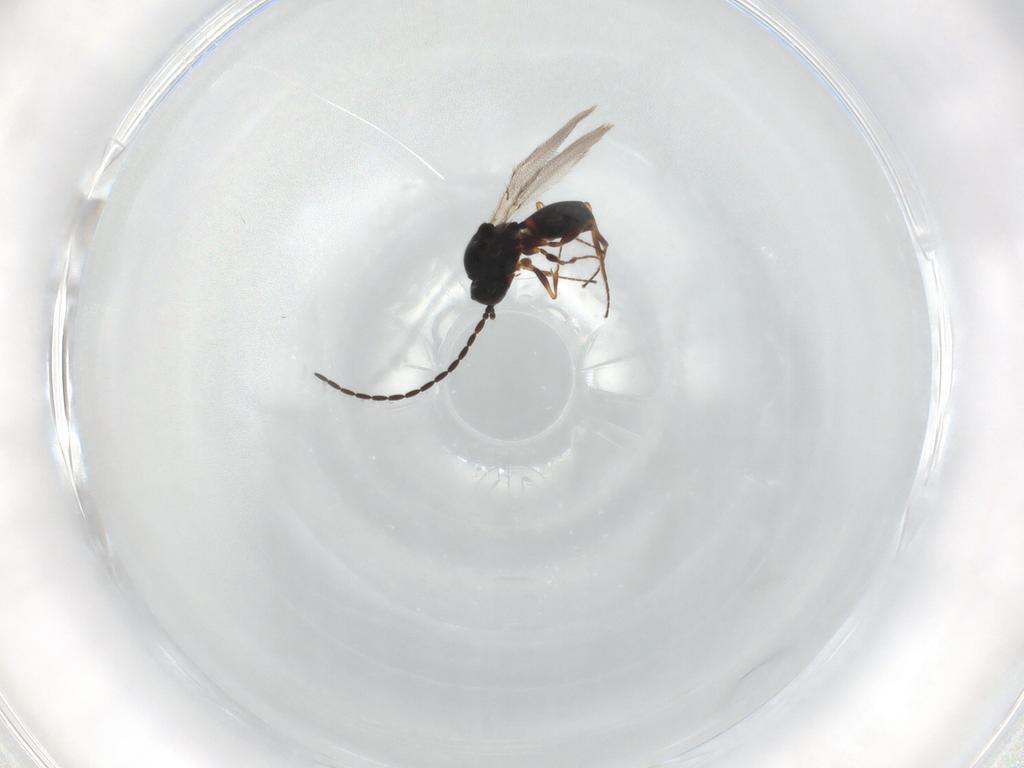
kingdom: Animalia
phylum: Arthropoda
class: Insecta
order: Hymenoptera
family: Figitidae
